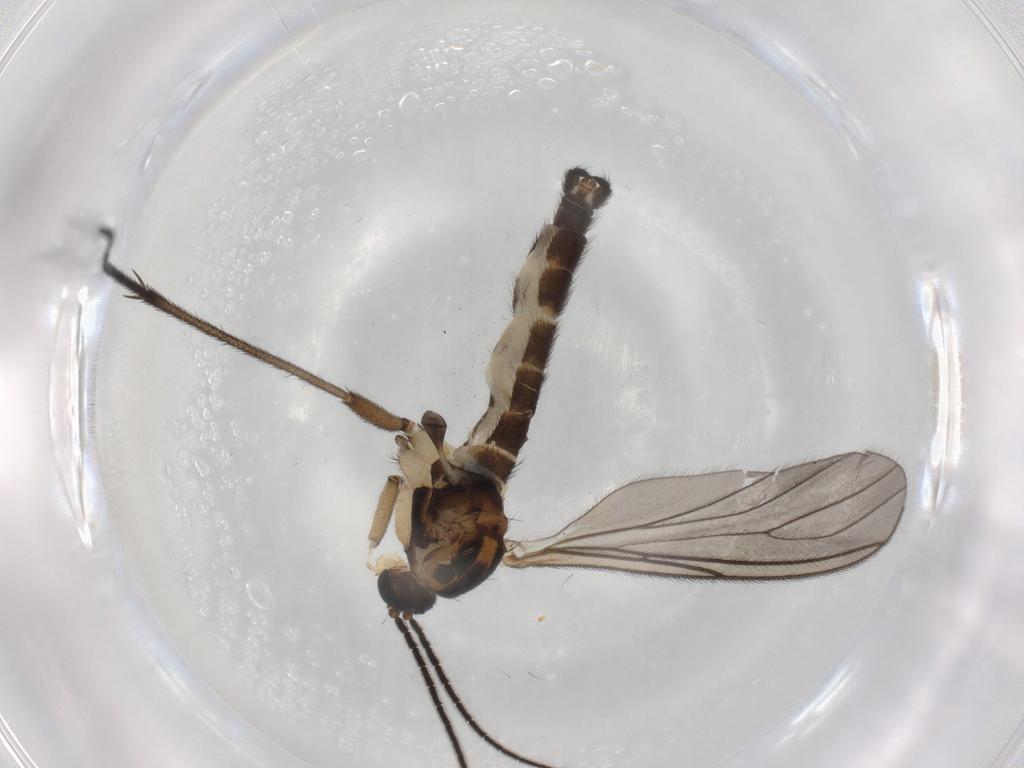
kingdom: Animalia
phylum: Arthropoda
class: Insecta
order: Diptera
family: Sciaridae
